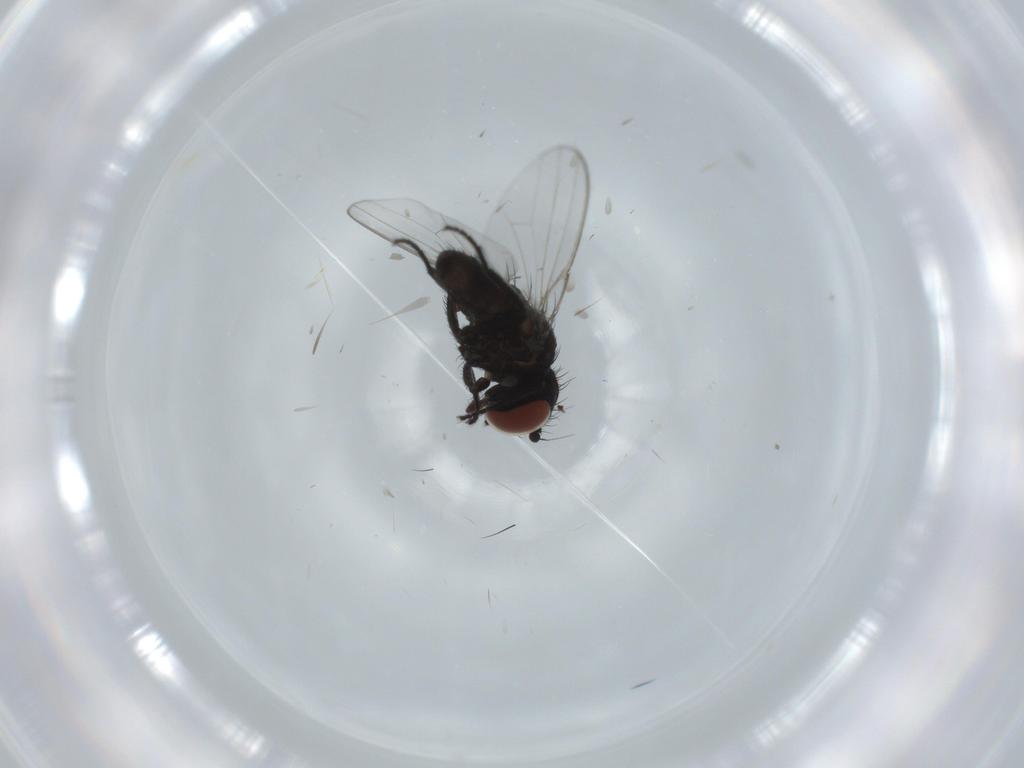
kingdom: Animalia
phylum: Arthropoda
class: Insecta
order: Diptera
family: Milichiidae
